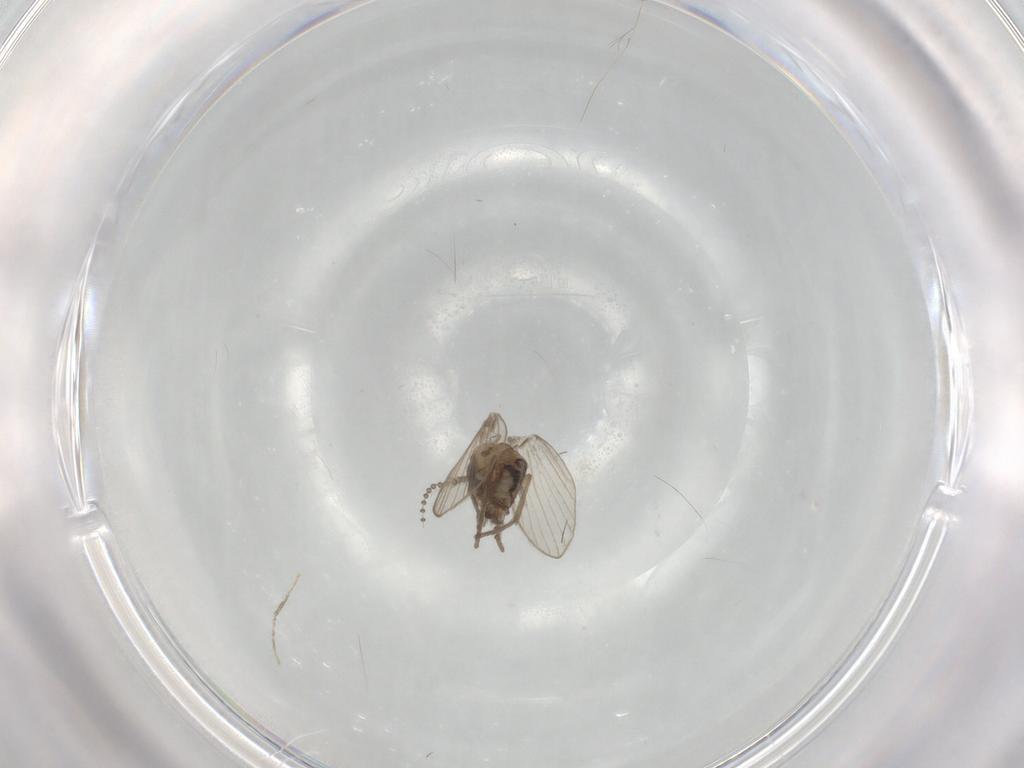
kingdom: Animalia
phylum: Arthropoda
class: Insecta
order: Diptera
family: Psychodidae
